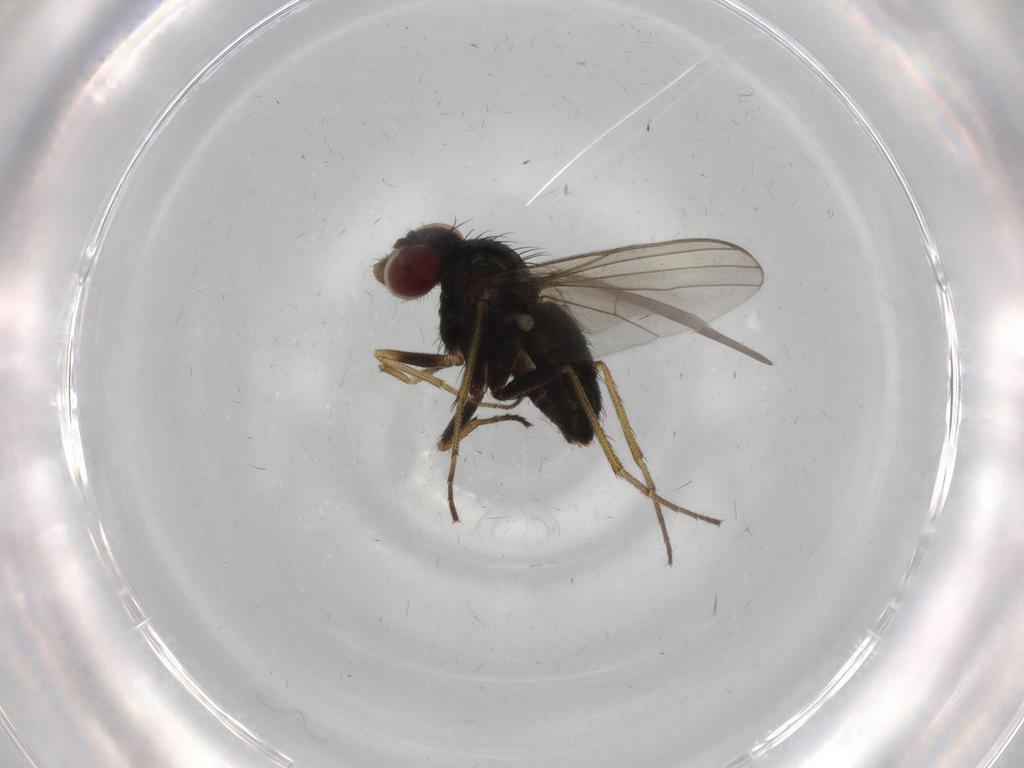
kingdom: Animalia
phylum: Arthropoda
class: Insecta
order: Diptera
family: Dolichopodidae
